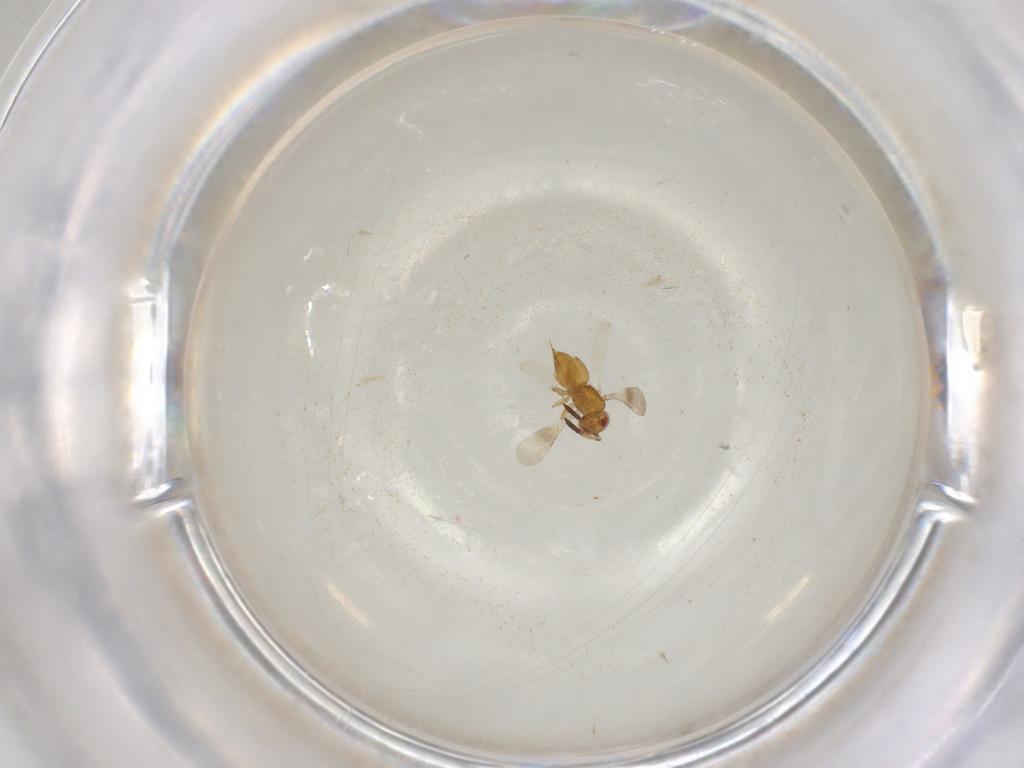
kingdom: Animalia
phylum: Arthropoda
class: Insecta
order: Hymenoptera
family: Ceraphronidae
